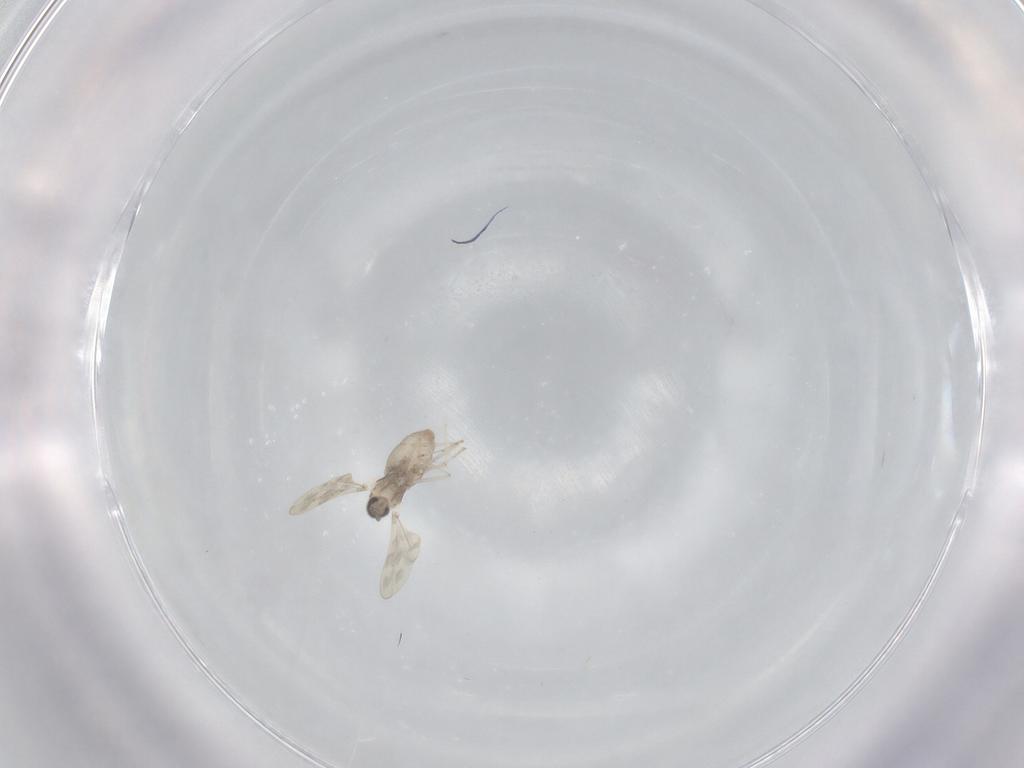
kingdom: Animalia
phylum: Arthropoda
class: Insecta
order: Diptera
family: Cecidomyiidae
